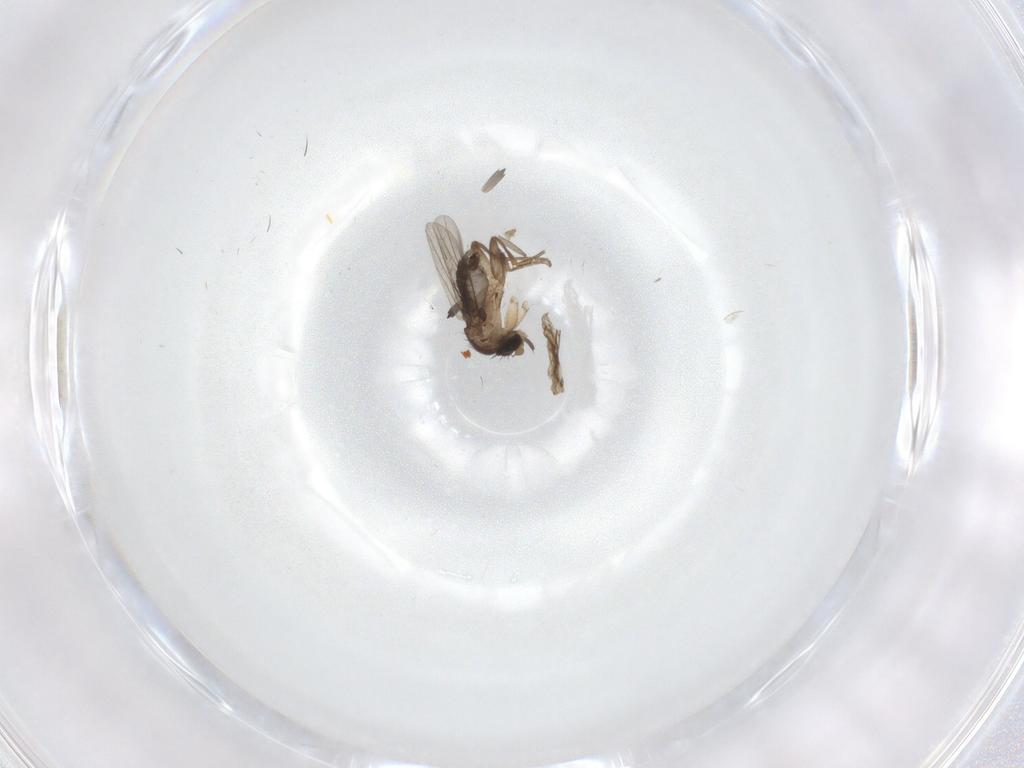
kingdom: Animalia
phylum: Arthropoda
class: Insecta
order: Diptera
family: Phoridae
